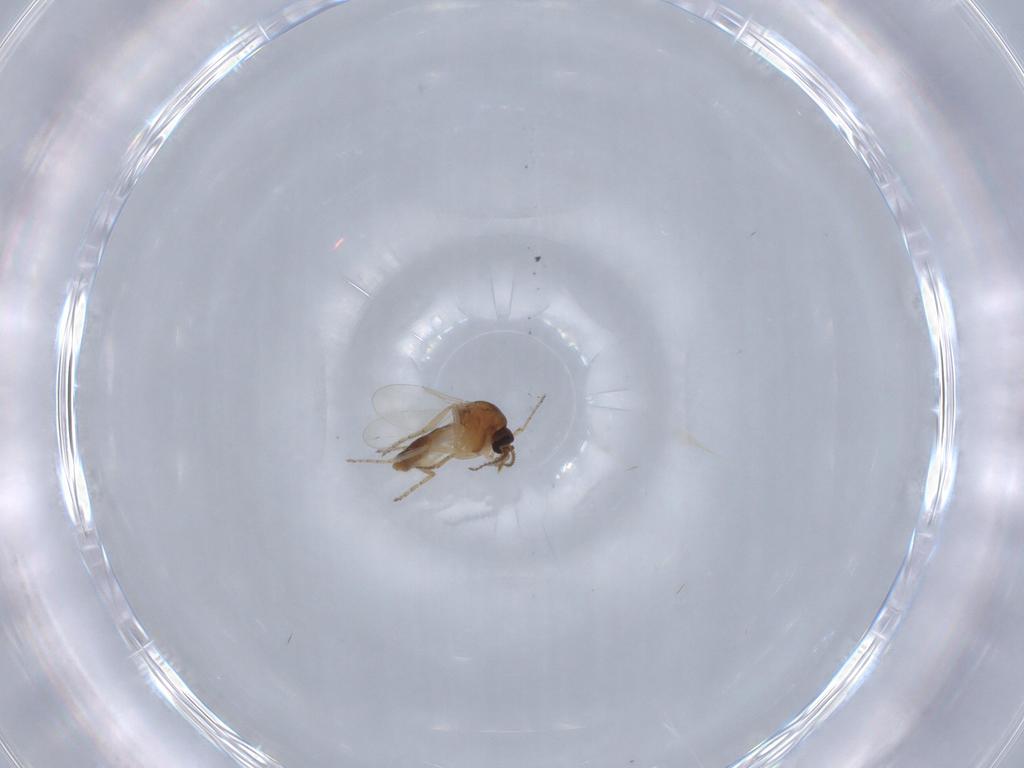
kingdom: Animalia
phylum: Arthropoda
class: Insecta
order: Diptera
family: Ceratopogonidae
